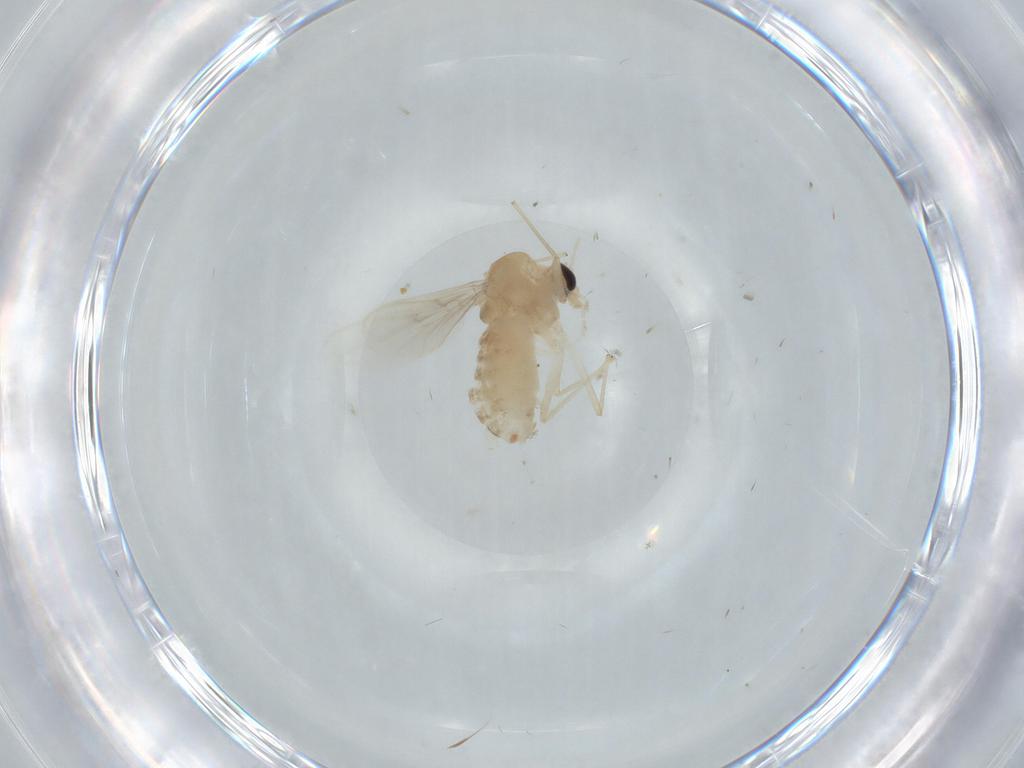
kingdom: Animalia
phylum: Arthropoda
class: Insecta
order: Diptera
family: Chironomidae
